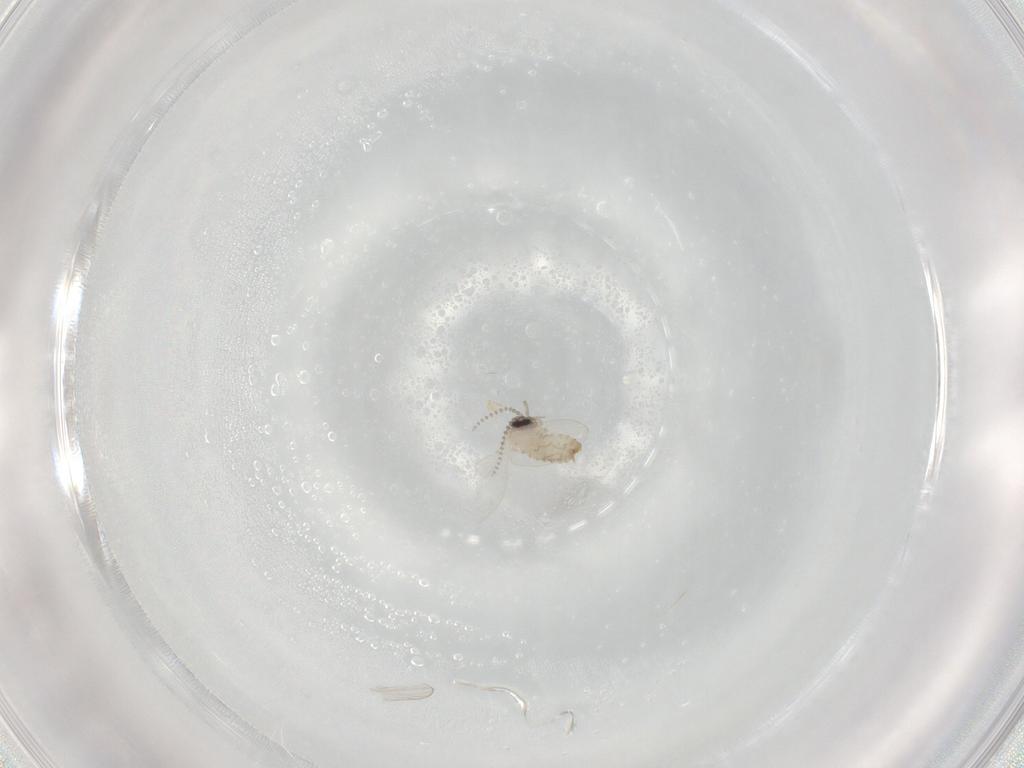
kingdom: Animalia
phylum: Arthropoda
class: Insecta
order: Diptera
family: Psychodidae
